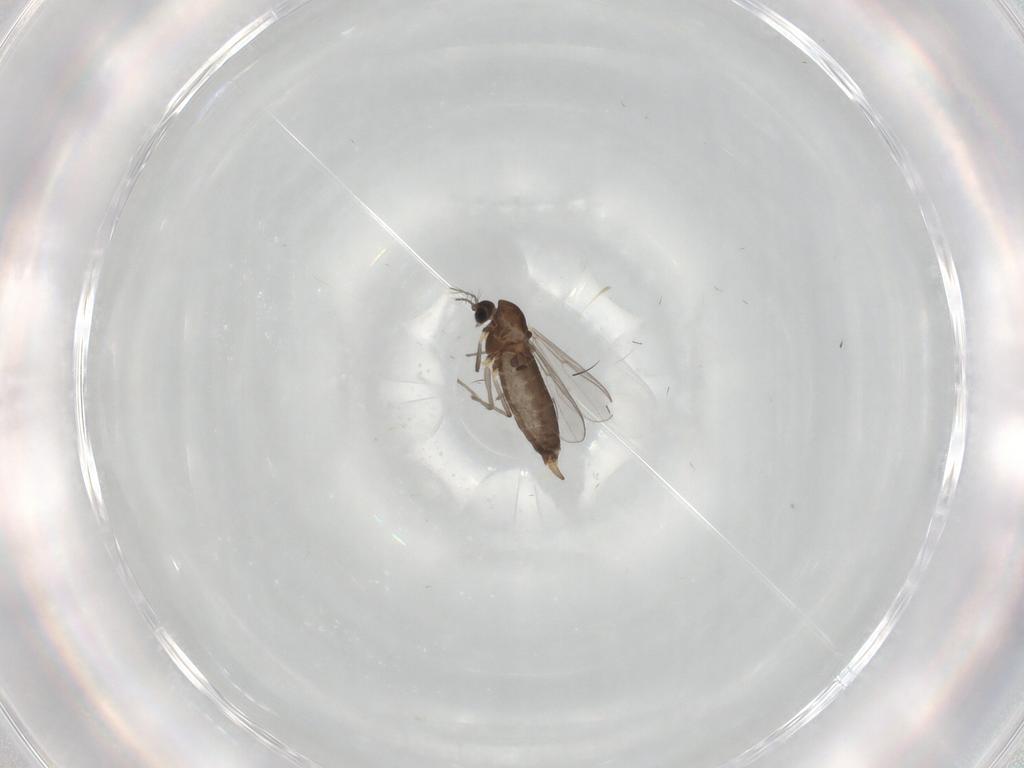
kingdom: Animalia
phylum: Arthropoda
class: Insecta
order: Diptera
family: Chironomidae
